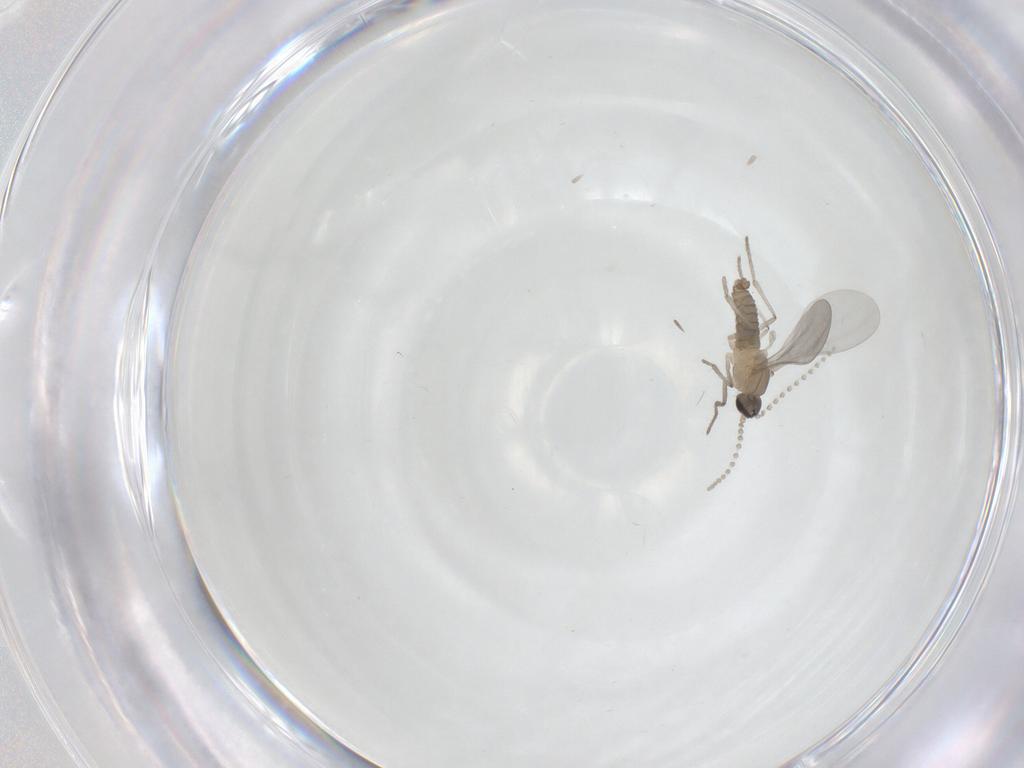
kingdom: Animalia
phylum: Arthropoda
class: Insecta
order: Diptera
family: Cecidomyiidae
